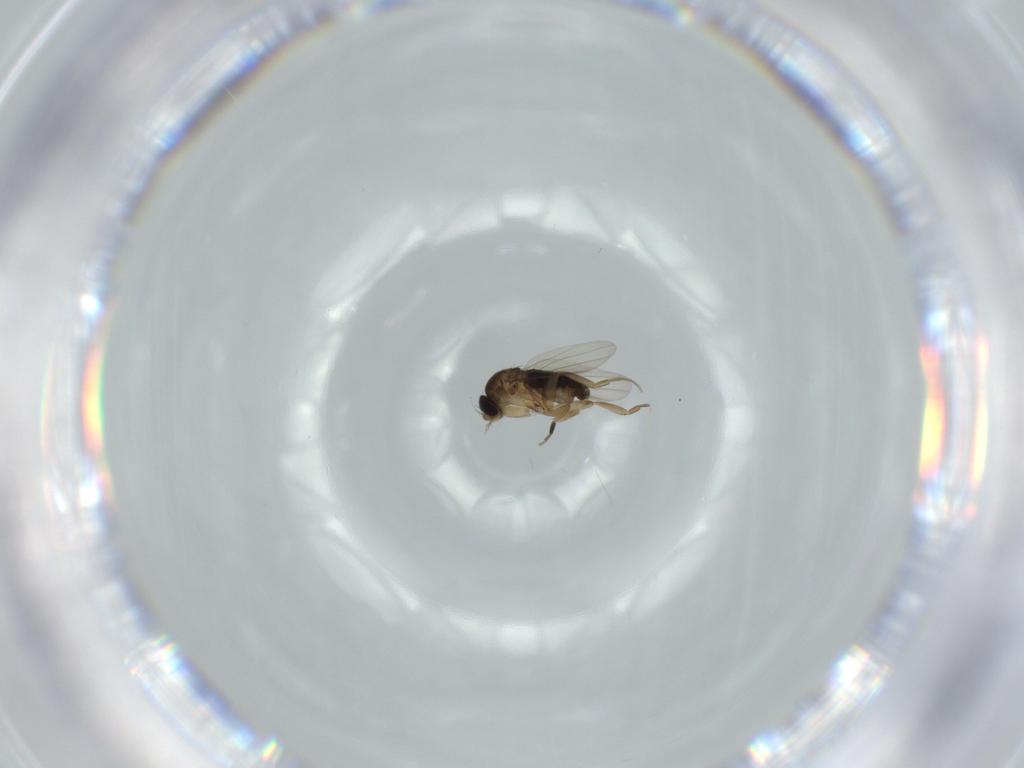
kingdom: Animalia
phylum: Arthropoda
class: Insecta
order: Diptera
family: Phoridae
